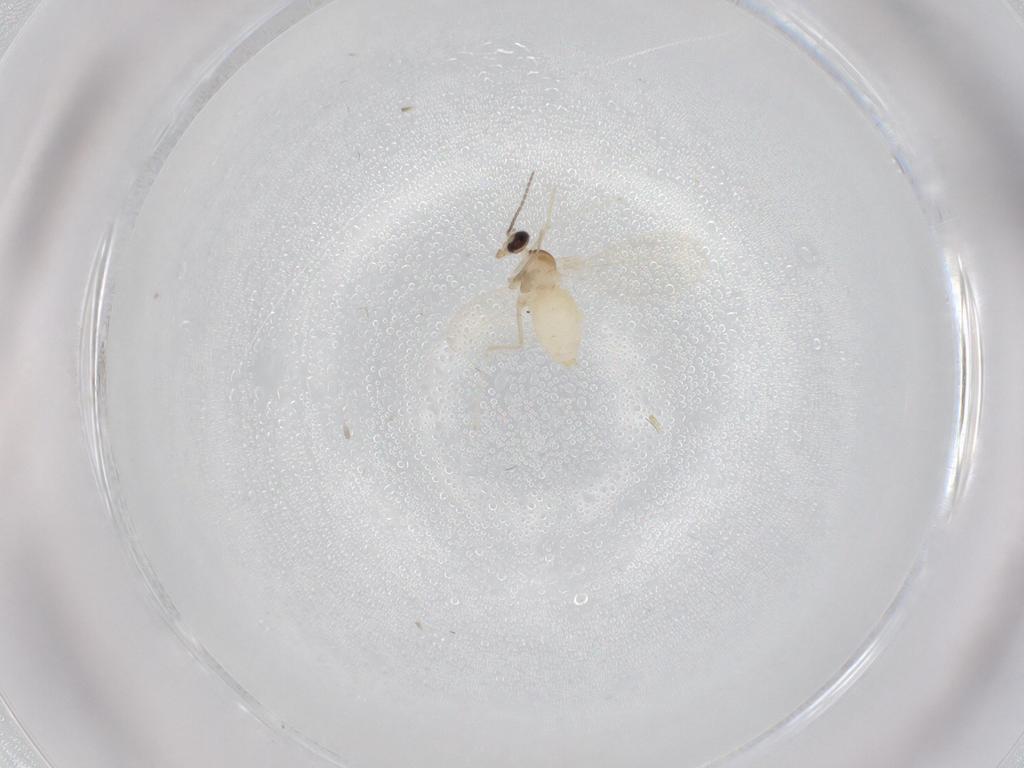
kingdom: Animalia
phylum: Arthropoda
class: Insecta
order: Diptera
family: Cecidomyiidae
